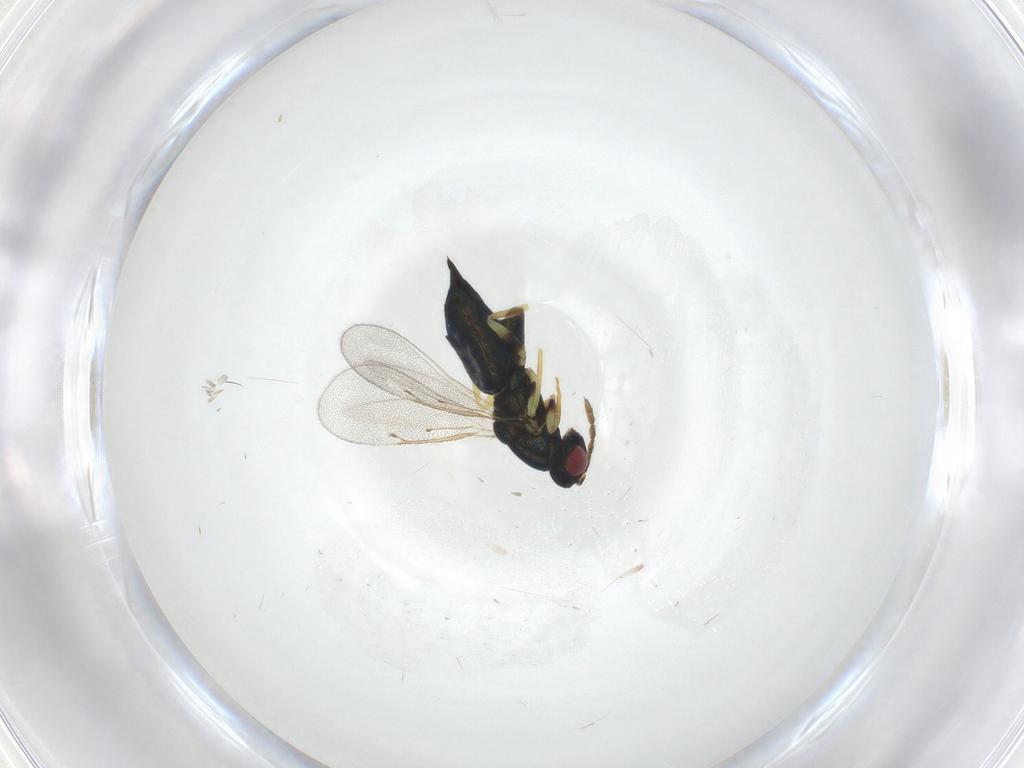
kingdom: Animalia
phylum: Arthropoda
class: Insecta
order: Hymenoptera
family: Eulophidae
